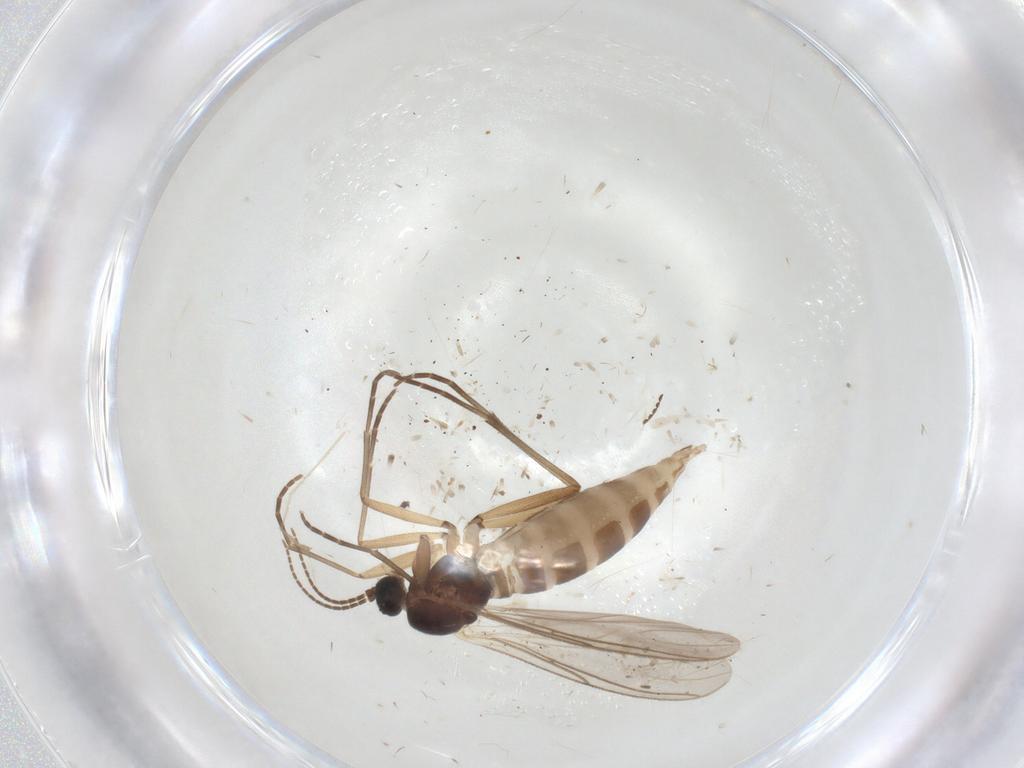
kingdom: Animalia
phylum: Arthropoda
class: Insecta
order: Diptera
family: Sciaridae
